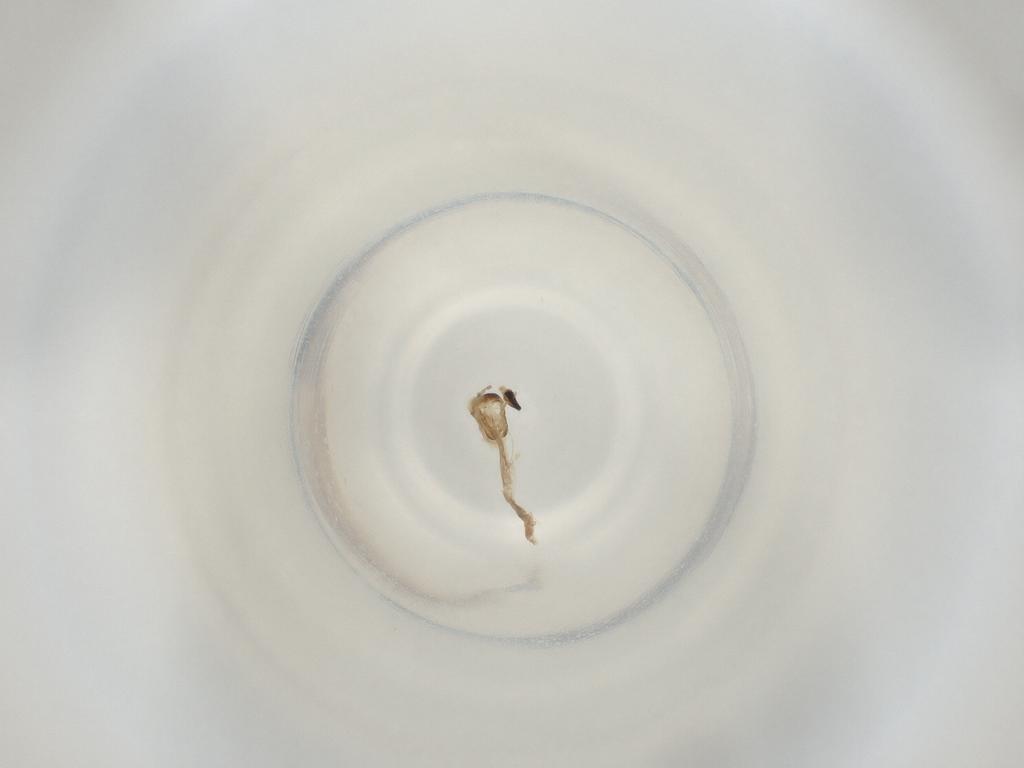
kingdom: Animalia
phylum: Arthropoda
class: Insecta
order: Diptera
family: Cecidomyiidae
